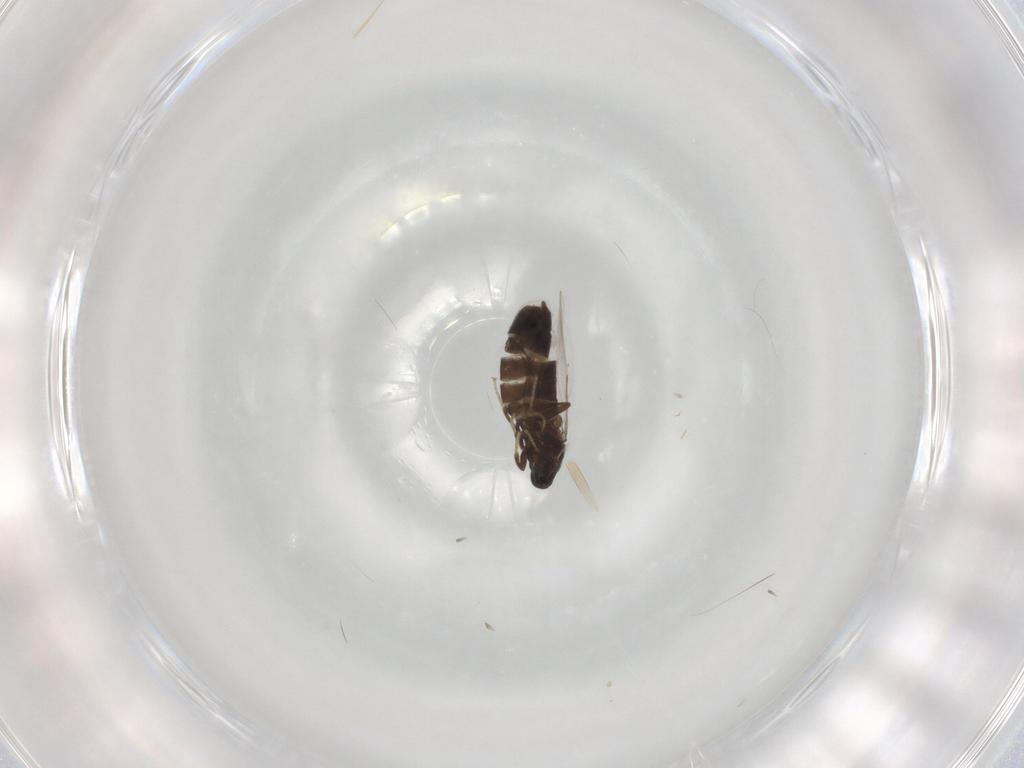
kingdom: Animalia
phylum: Arthropoda
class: Insecta
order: Diptera
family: Scatopsidae
